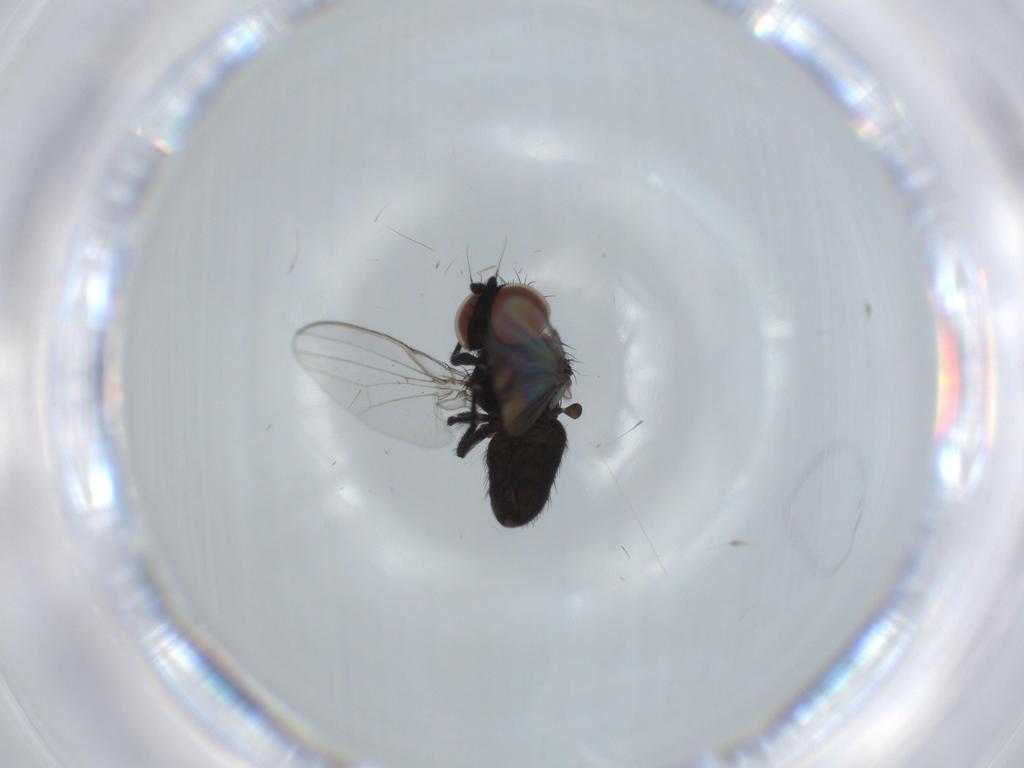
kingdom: Animalia
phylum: Arthropoda
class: Insecta
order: Diptera
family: Milichiidae
